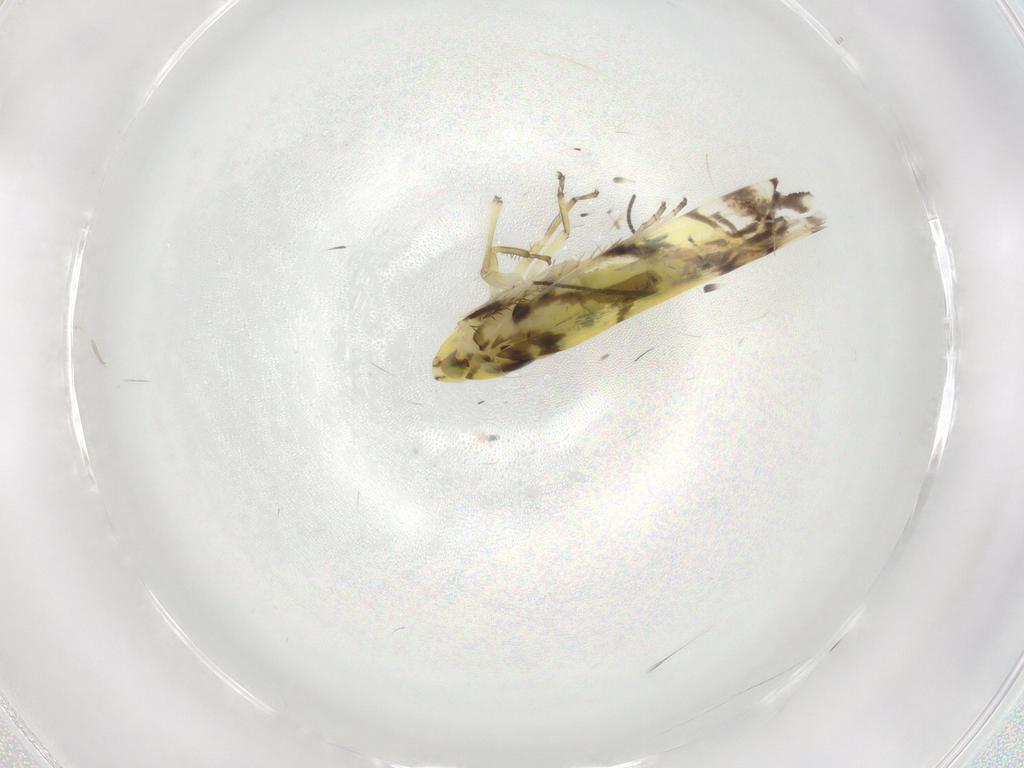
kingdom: Animalia
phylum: Arthropoda
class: Insecta
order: Hemiptera
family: Cicadellidae
